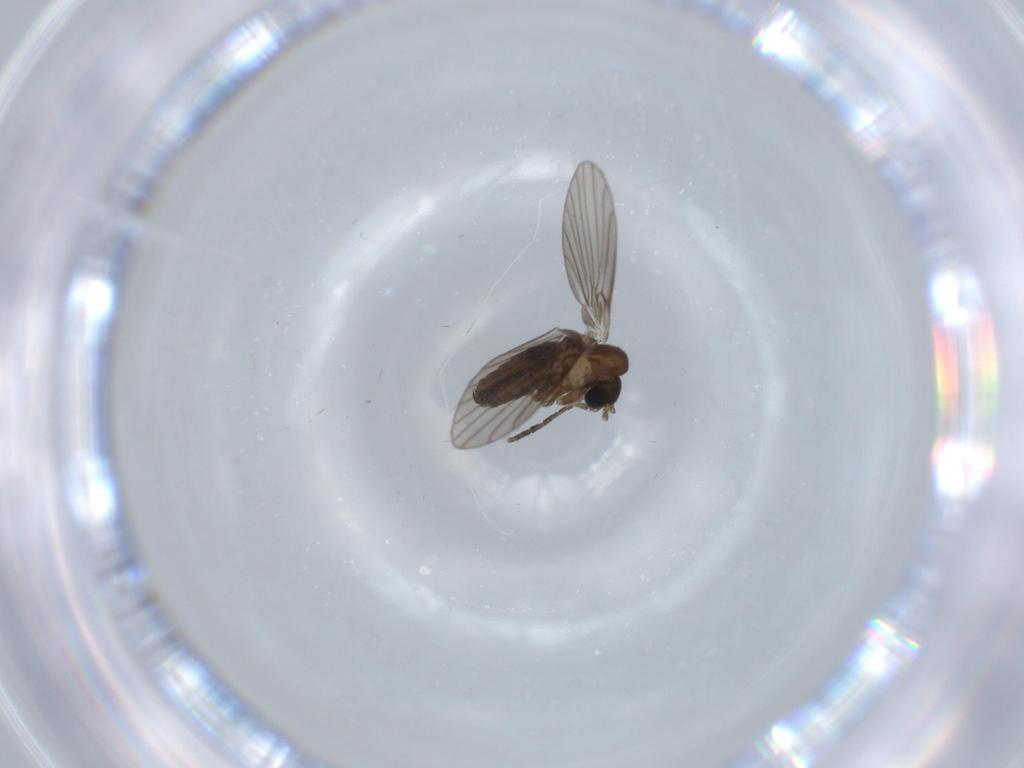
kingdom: Animalia
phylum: Arthropoda
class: Insecta
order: Diptera
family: Psychodidae
